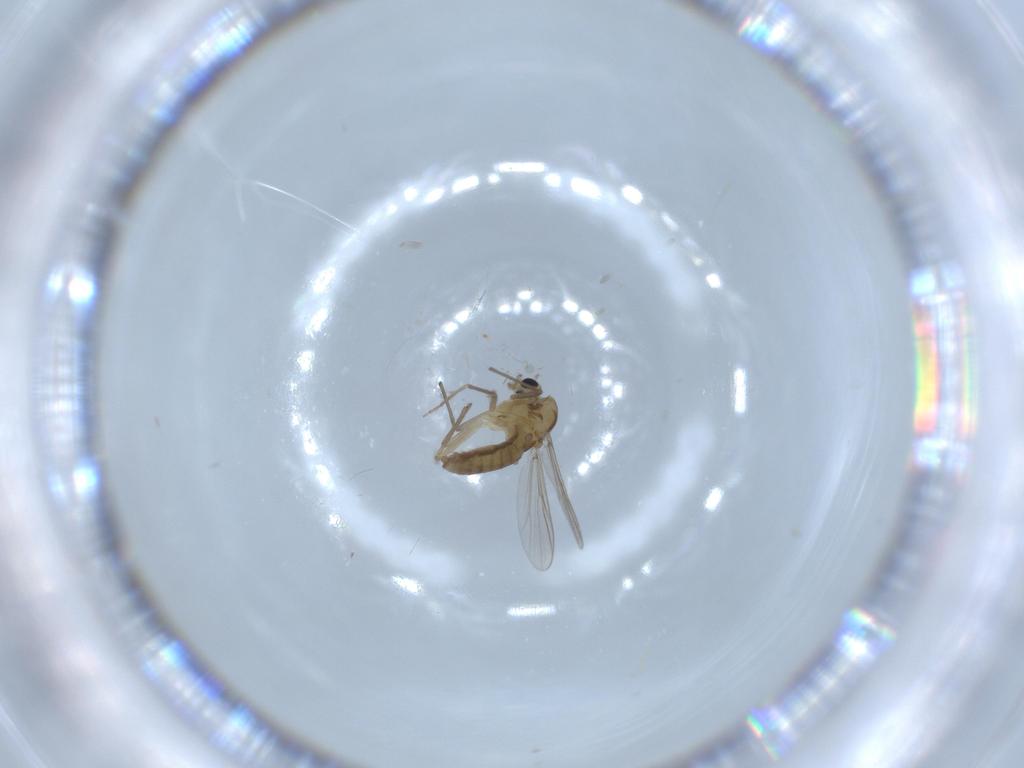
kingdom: Animalia
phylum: Arthropoda
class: Insecta
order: Diptera
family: Chironomidae
